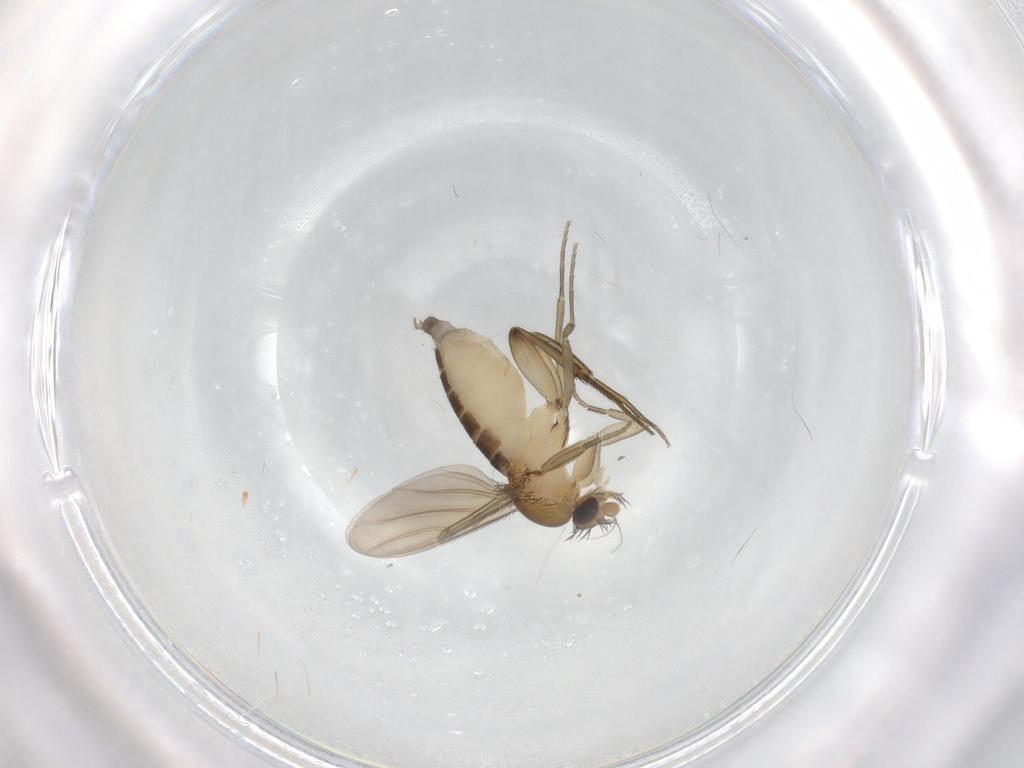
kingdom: Animalia
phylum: Arthropoda
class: Insecta
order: Diptera
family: Phoridae
